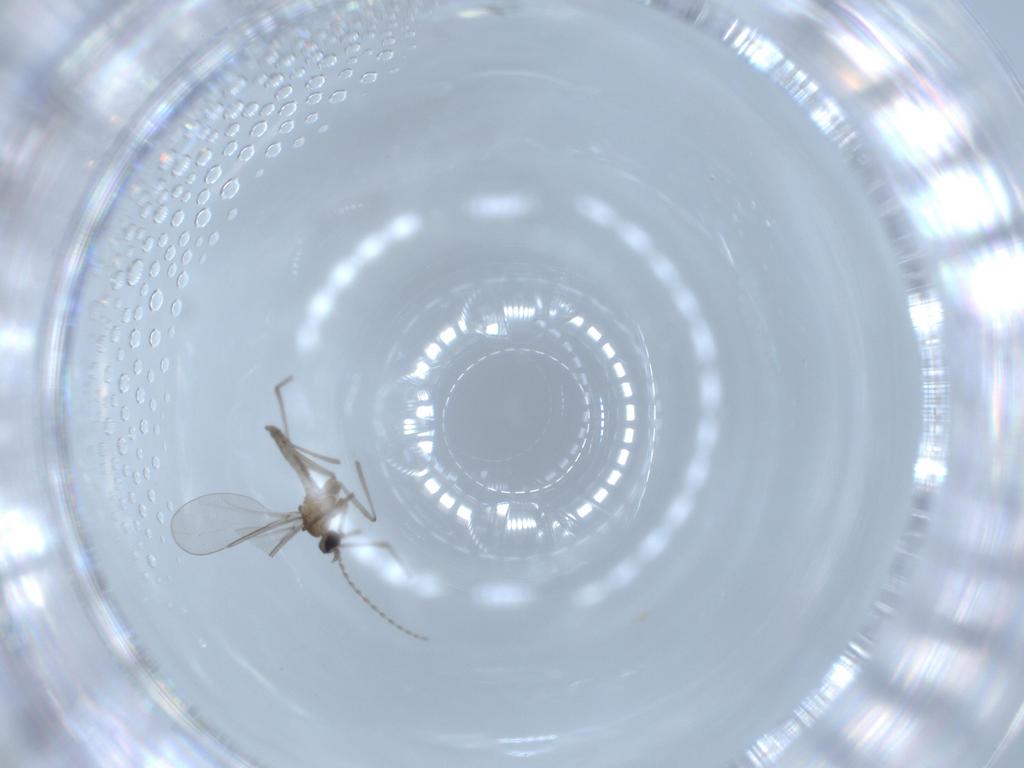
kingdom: Animalia
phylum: Arthropoda
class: Insecta
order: Diptera
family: Cecidomyiidae
